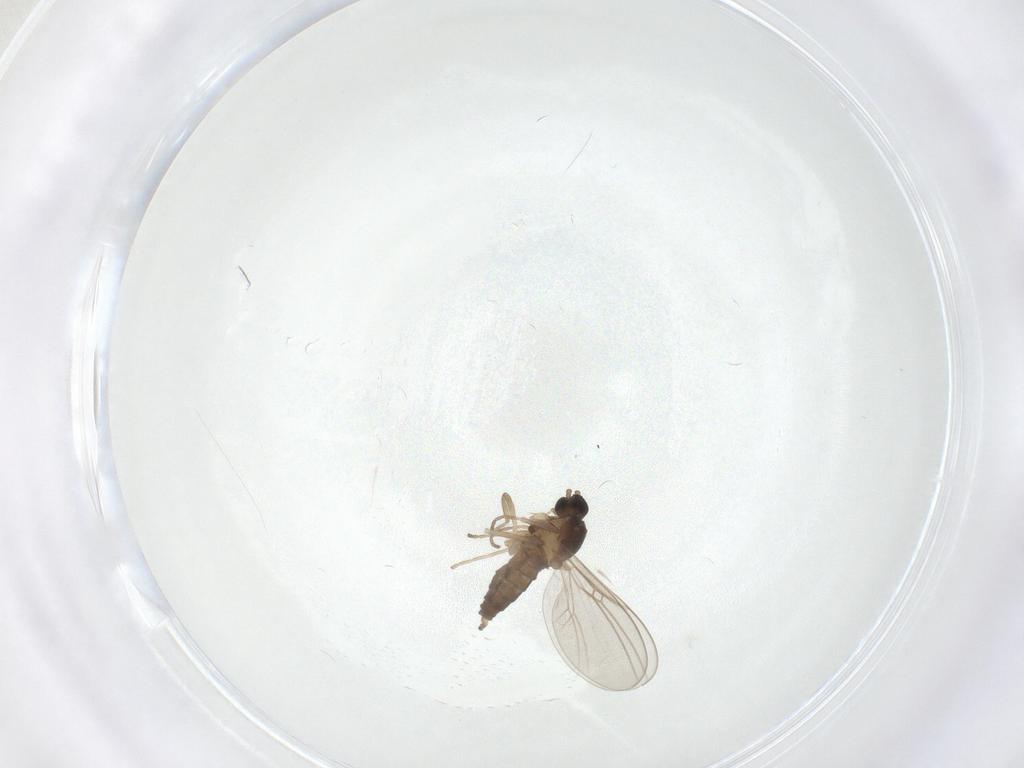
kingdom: Animalia
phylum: Arthropoda
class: Insecta
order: Diptera
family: Cecidomyiidae
